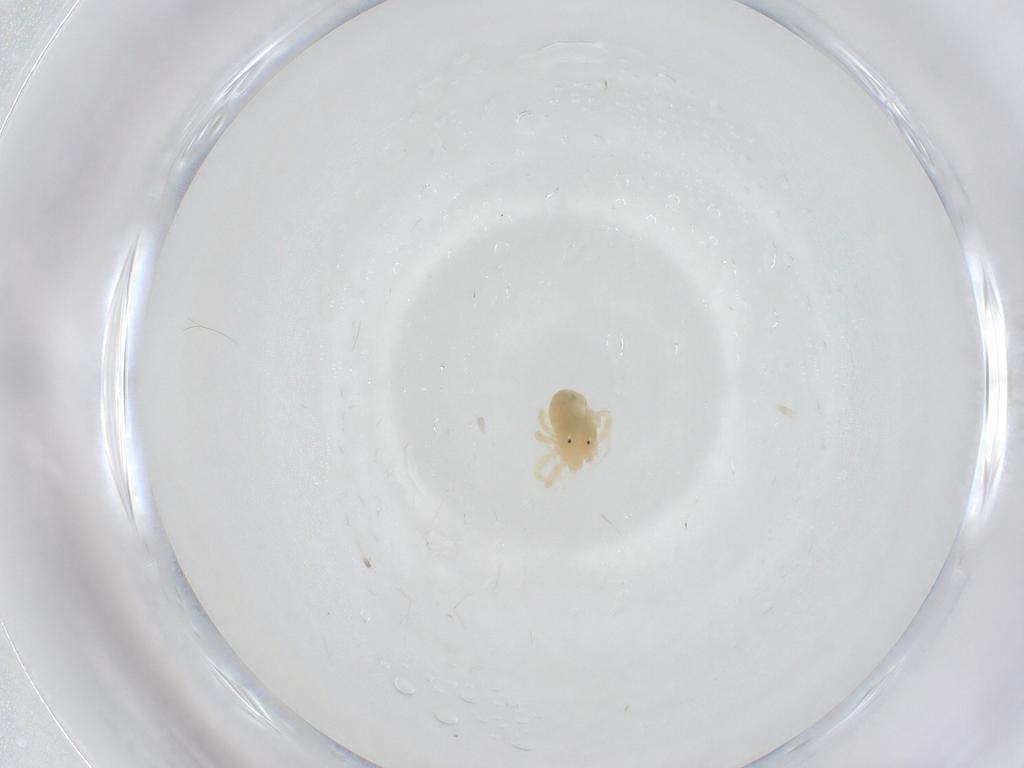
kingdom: Animalia
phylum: Arthropoda
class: Arachnida
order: Trombidiformes
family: Anystidae
